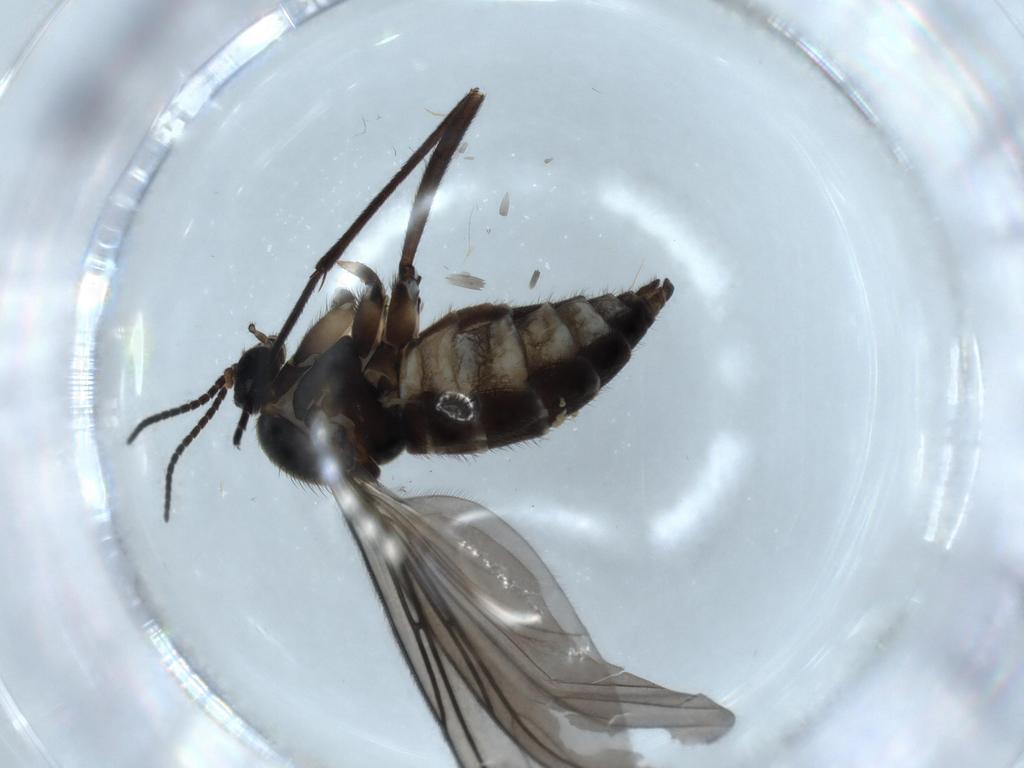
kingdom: Animalia
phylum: Arthropoda
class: Insecta
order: Diptera
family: Sciaridae
